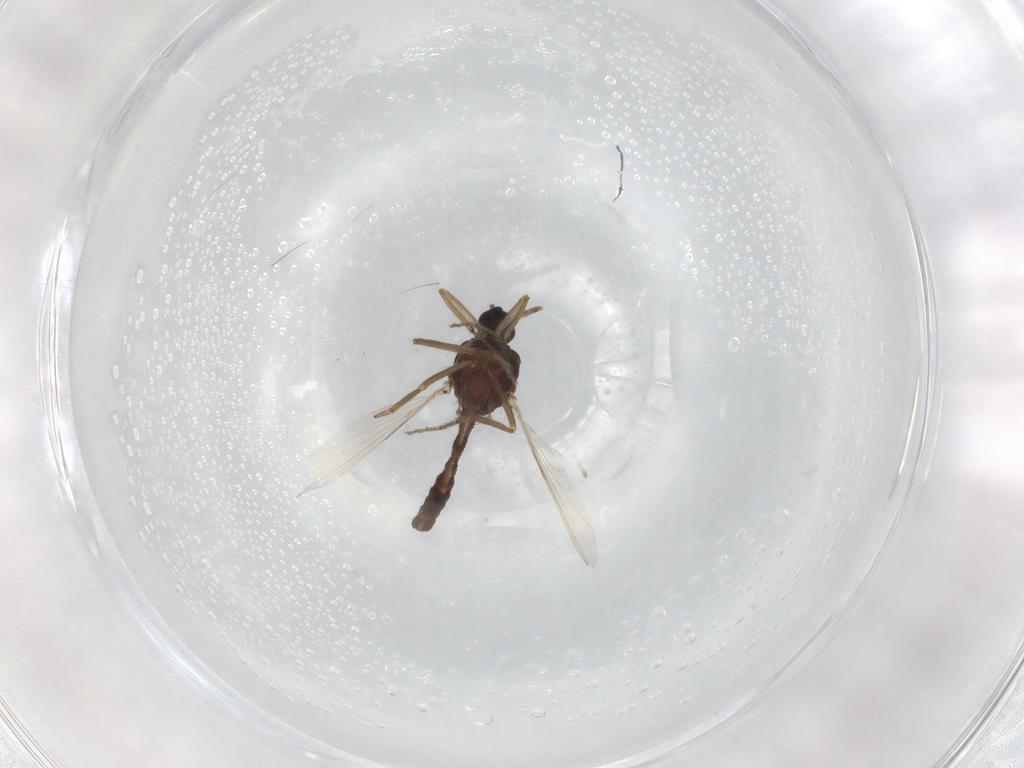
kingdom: Animalia
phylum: Arthropoda
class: Insecta
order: Diptera
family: Ceratopogonidae
